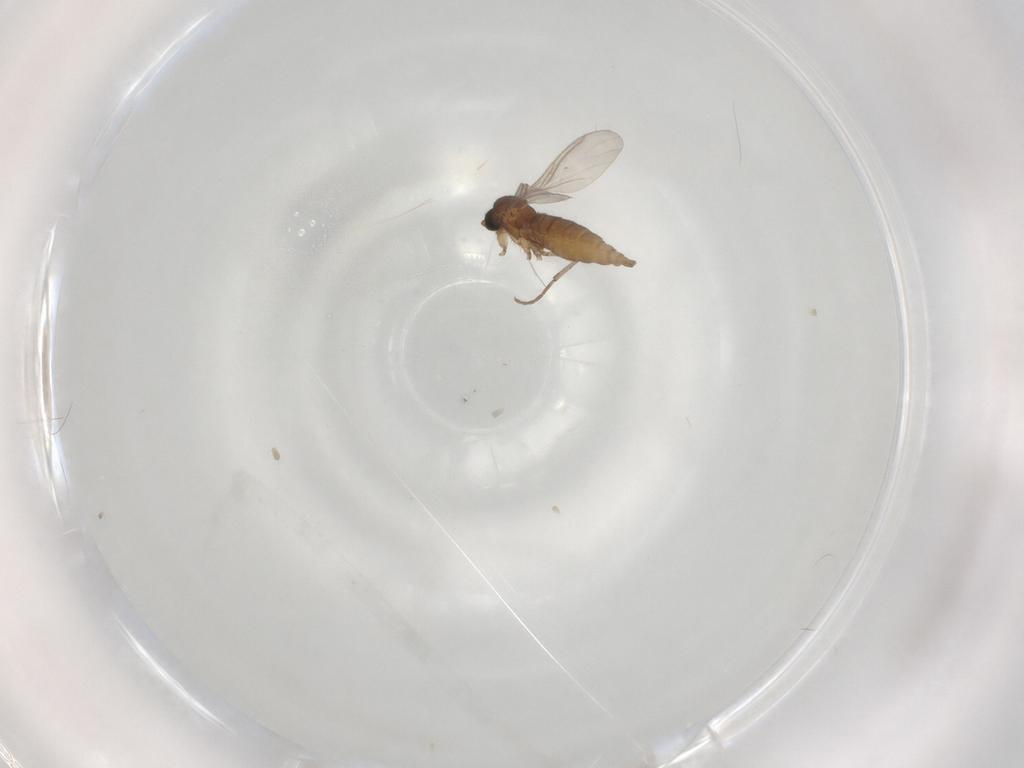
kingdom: Animalia
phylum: Arthropoda
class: Insecta
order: Diptera
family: Sciaridae
